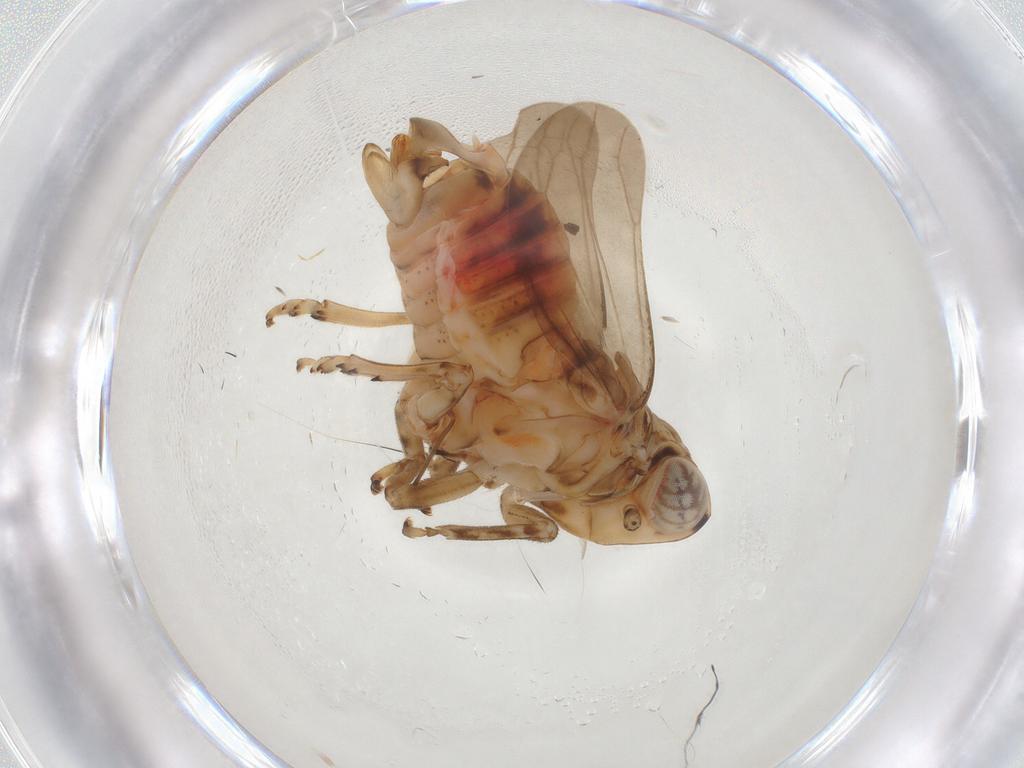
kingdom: Animalia
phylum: Arthropoda
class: Insecta
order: Hemiptera
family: Issidae
